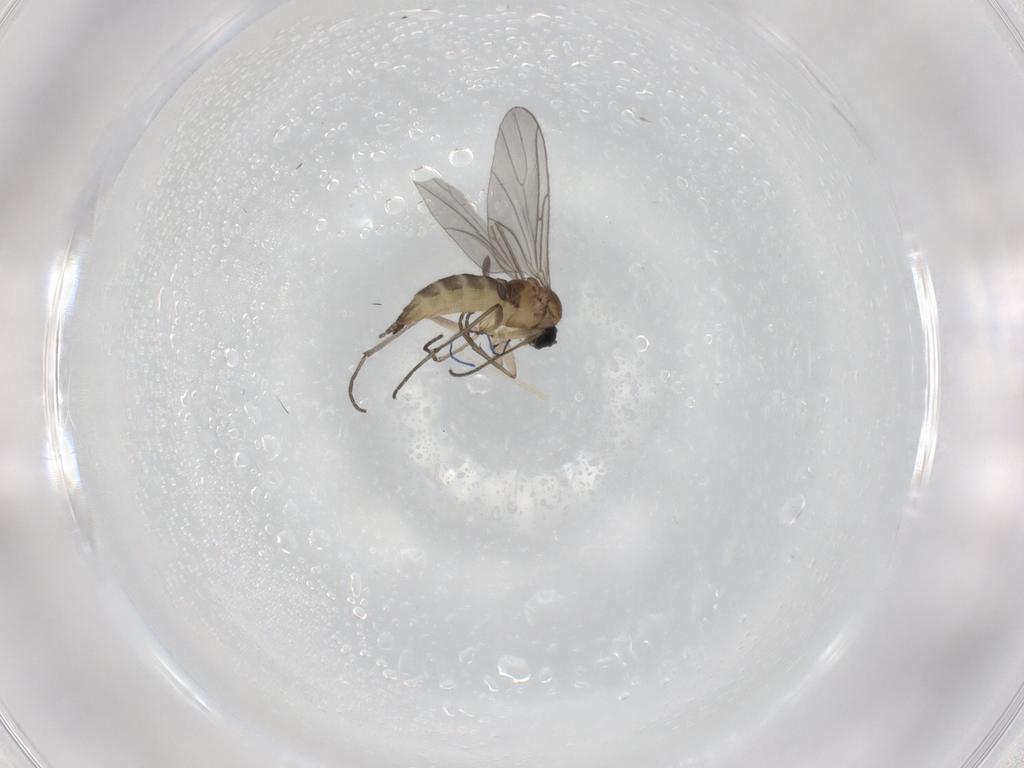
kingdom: Animalia
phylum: Arthropoda
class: Insecta
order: Diptera
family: Sciaridae
